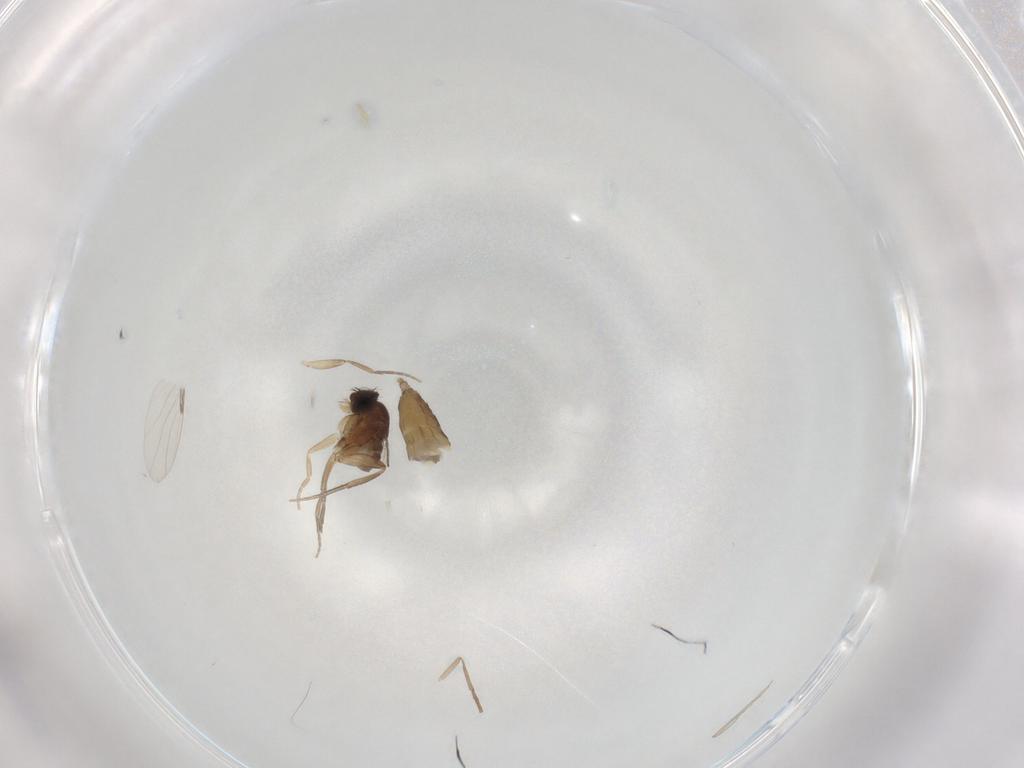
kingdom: Animalia
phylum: Arthropoda
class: Insecta
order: Diptera
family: Phoridae
